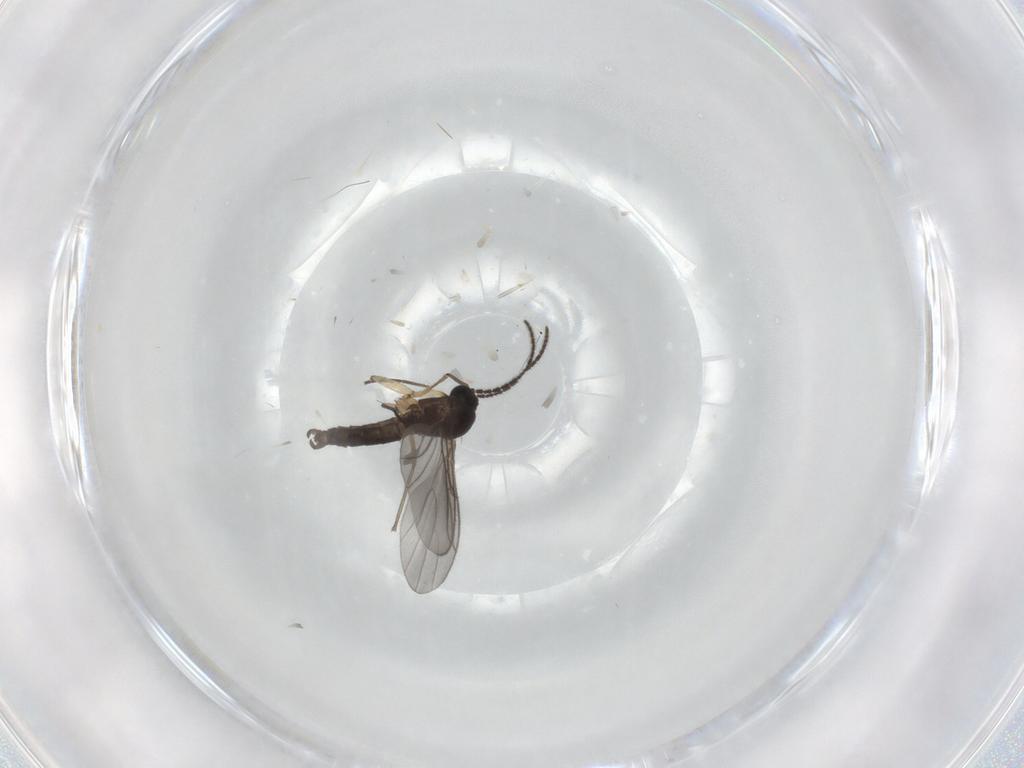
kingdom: Animalia
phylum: Arthropoda
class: Insecta
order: Diptera
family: Sciaridae
